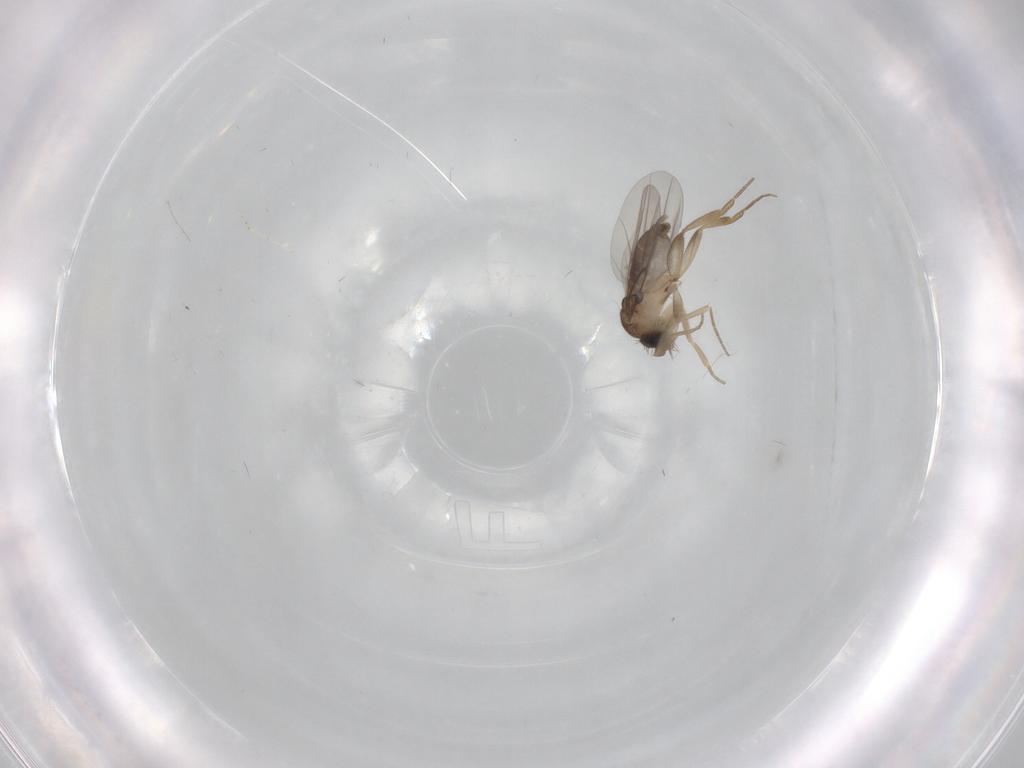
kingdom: Animalia
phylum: Arthropoda
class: Insecta
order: Diptera
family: Phoridae
